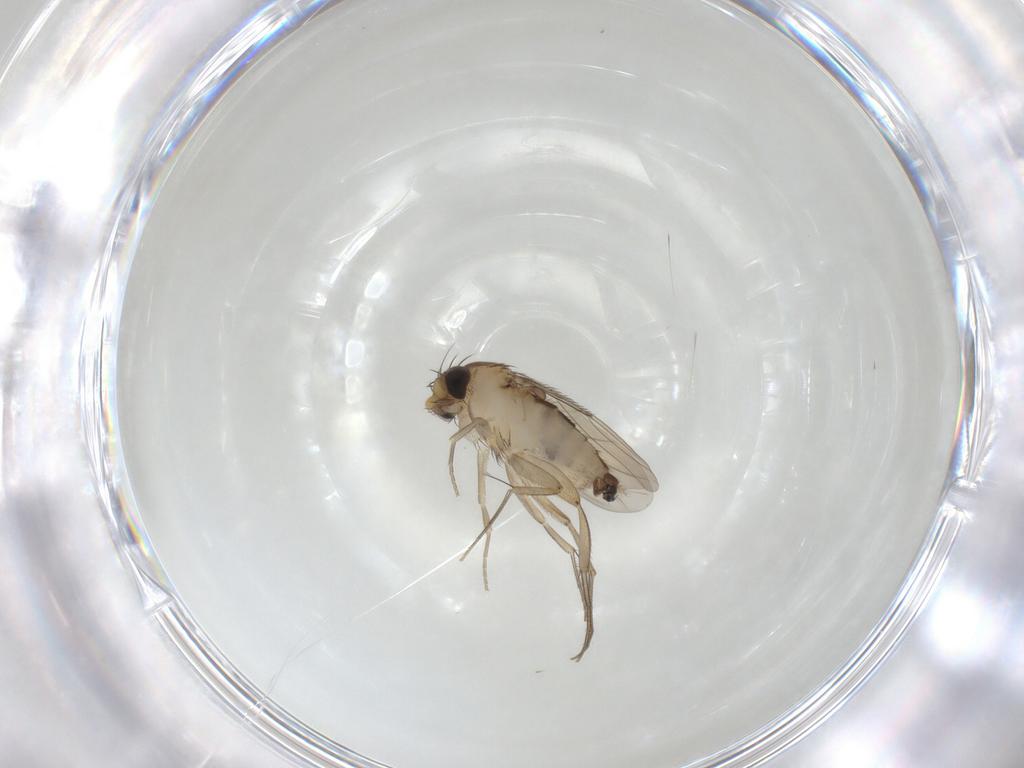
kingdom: Animalia
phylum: Arthropoda
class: Insecta
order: Diptera
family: Phoridae
